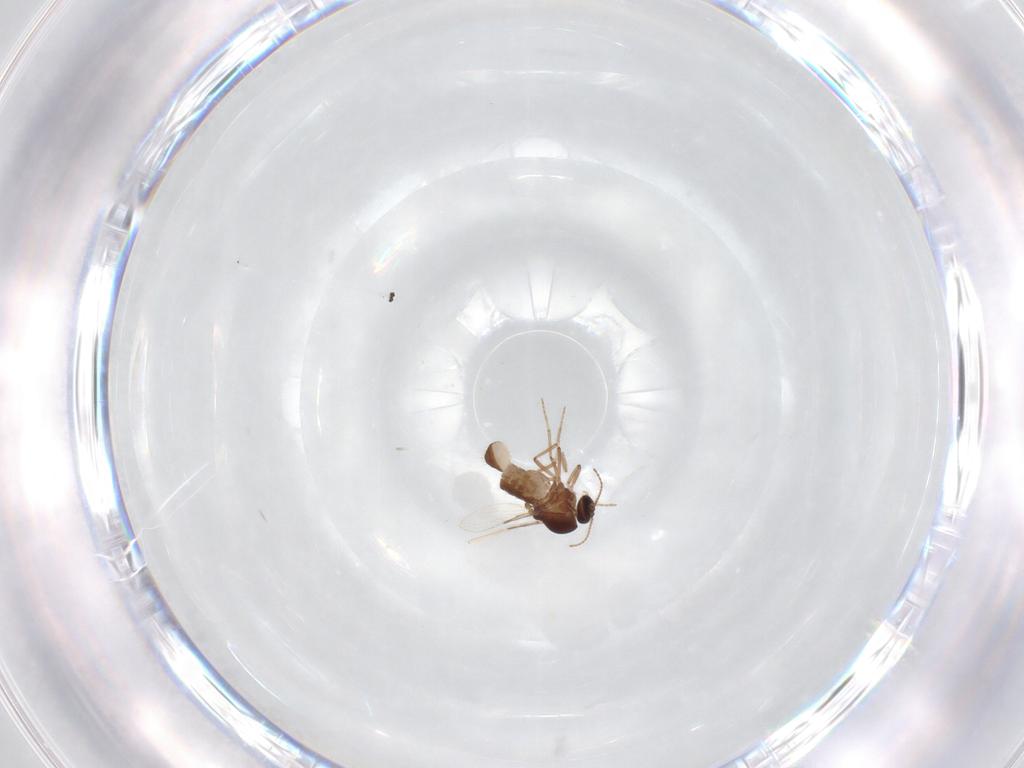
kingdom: Animalia
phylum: Arthropoda
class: Insecta
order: Diptera
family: Ceratopogonidae
